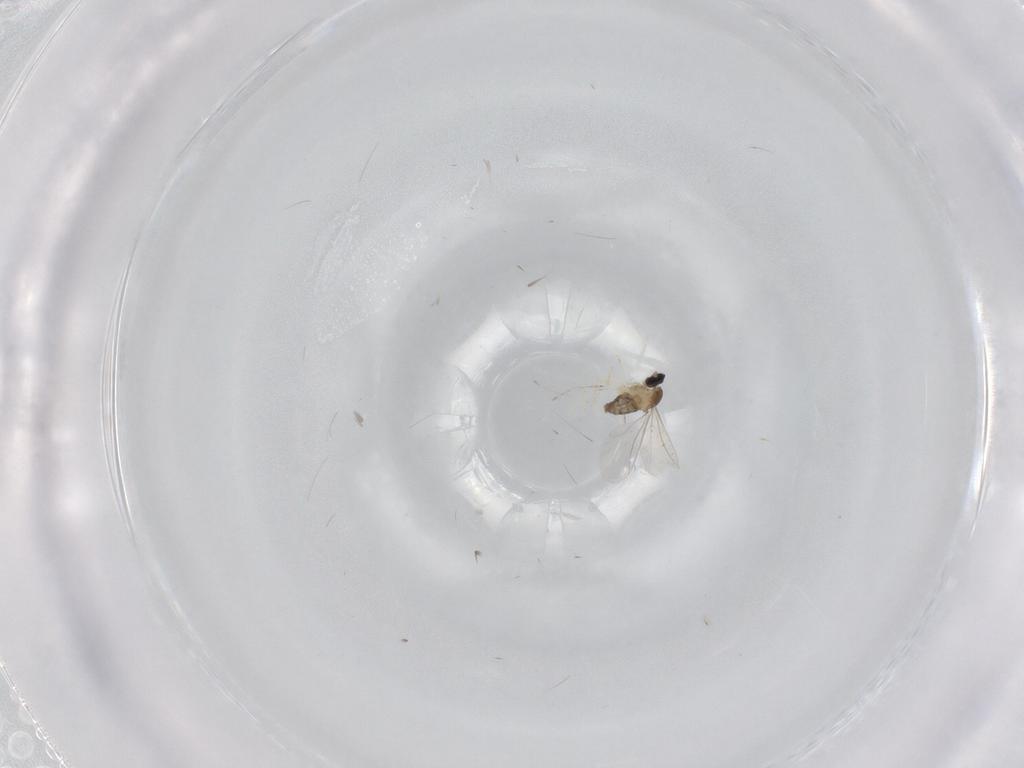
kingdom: Animalia
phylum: Arthropoda
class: Insecta
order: Diptera
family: Cecidomyiidae
